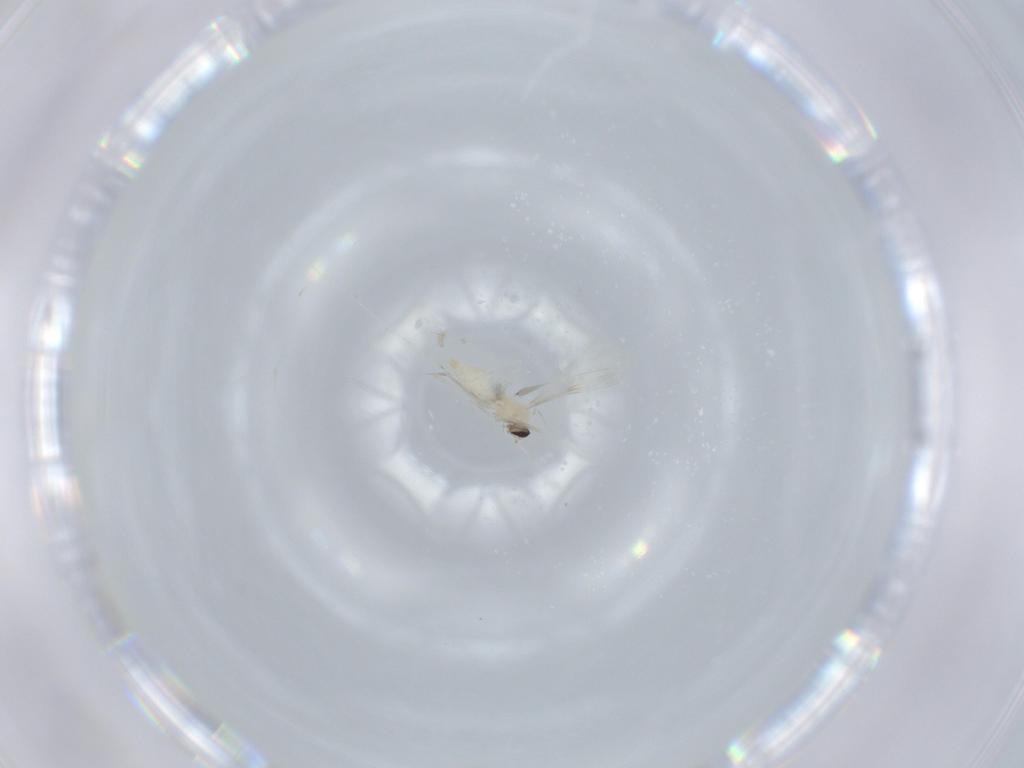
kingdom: Animalia
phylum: Arthropoda
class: Insecta
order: Diptera
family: Cecidomyiidae
